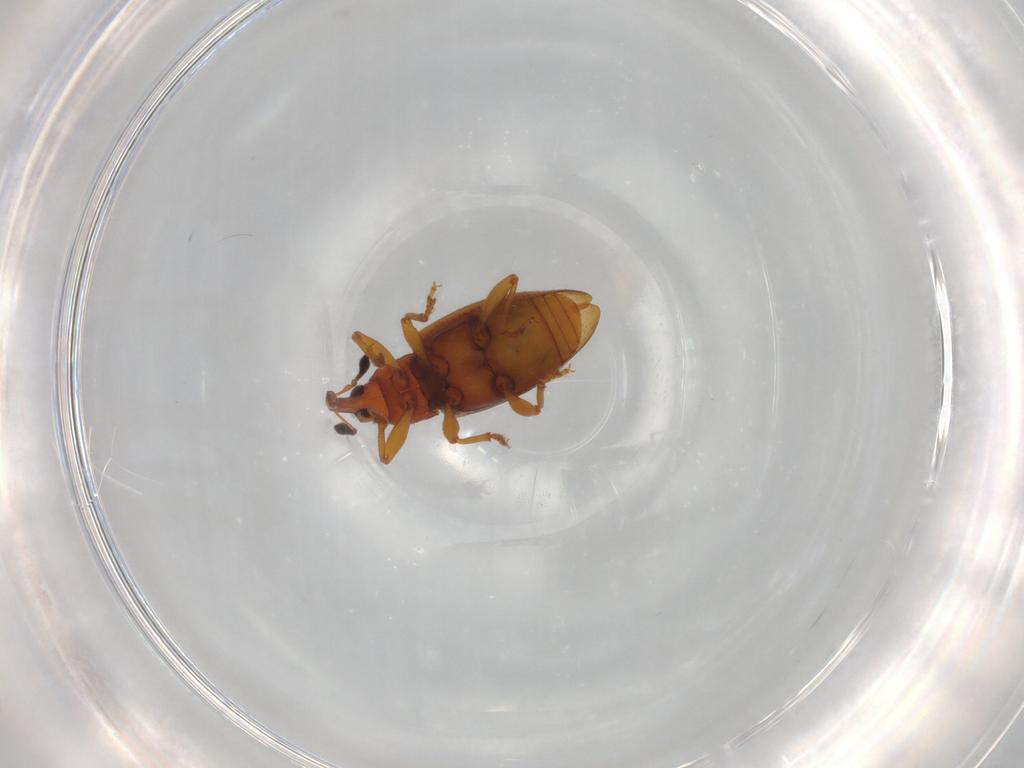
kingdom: Animalia
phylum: Arthropoda
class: Insecta
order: Coleoptera
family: Curculionidae
